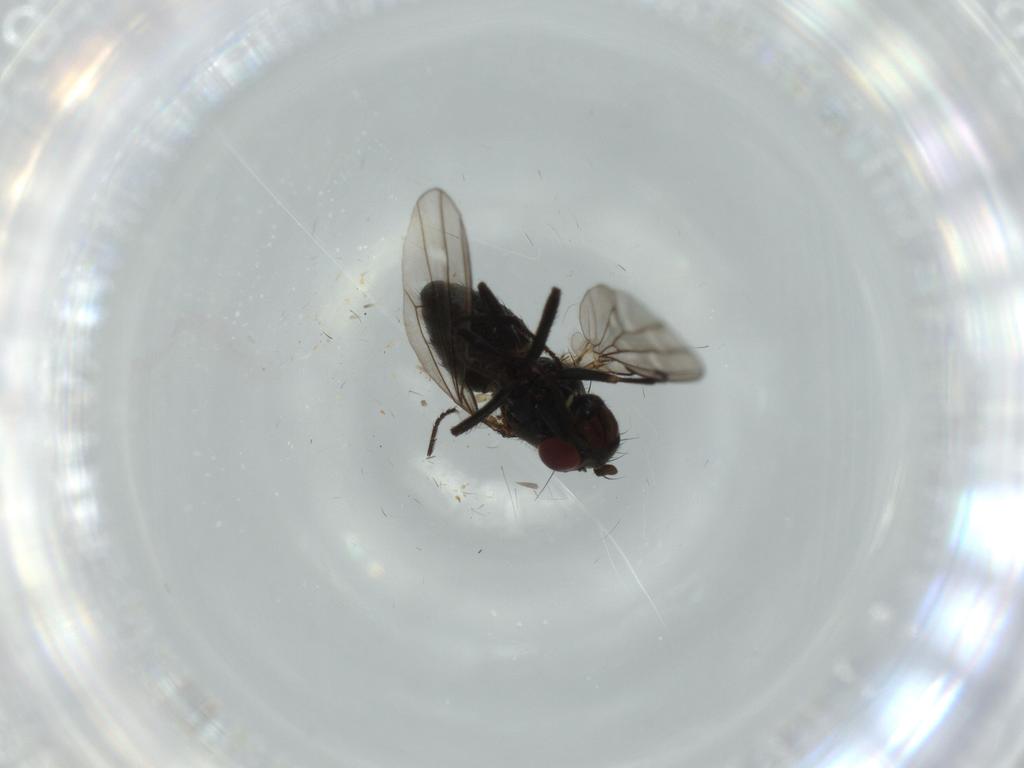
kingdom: Animalia
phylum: Arthropoda
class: Insecta
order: Diptera
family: Ephydridae
